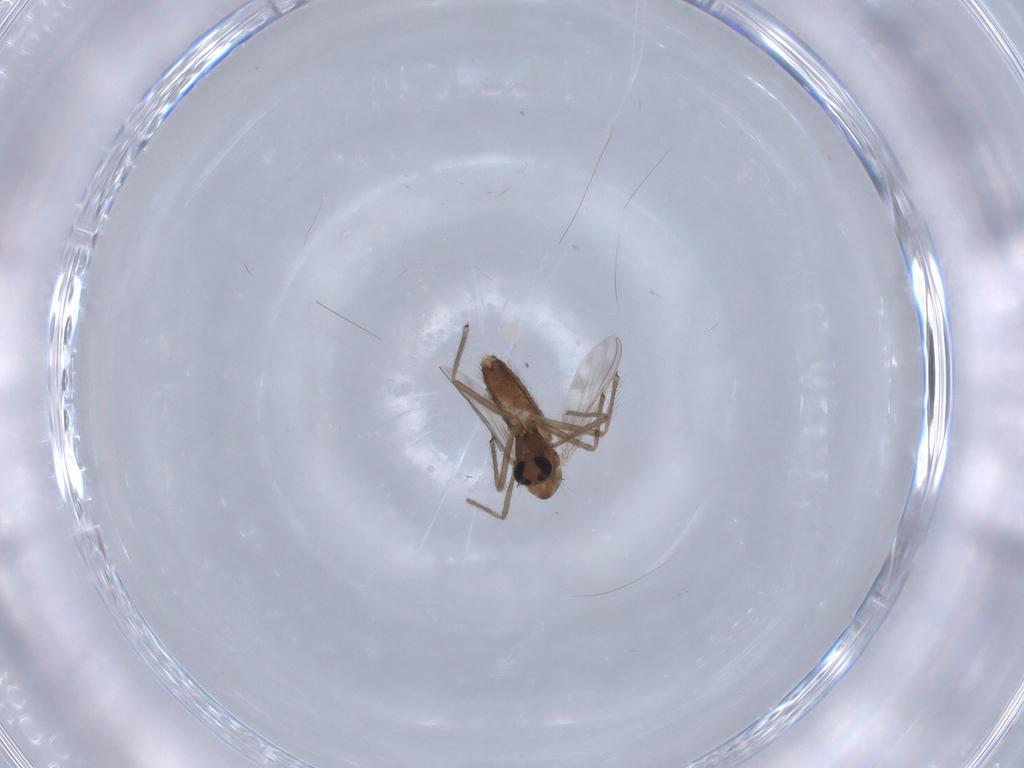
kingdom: Animalia
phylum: Arthropoda
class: Insecta
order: Diptera
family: Chironomidae
